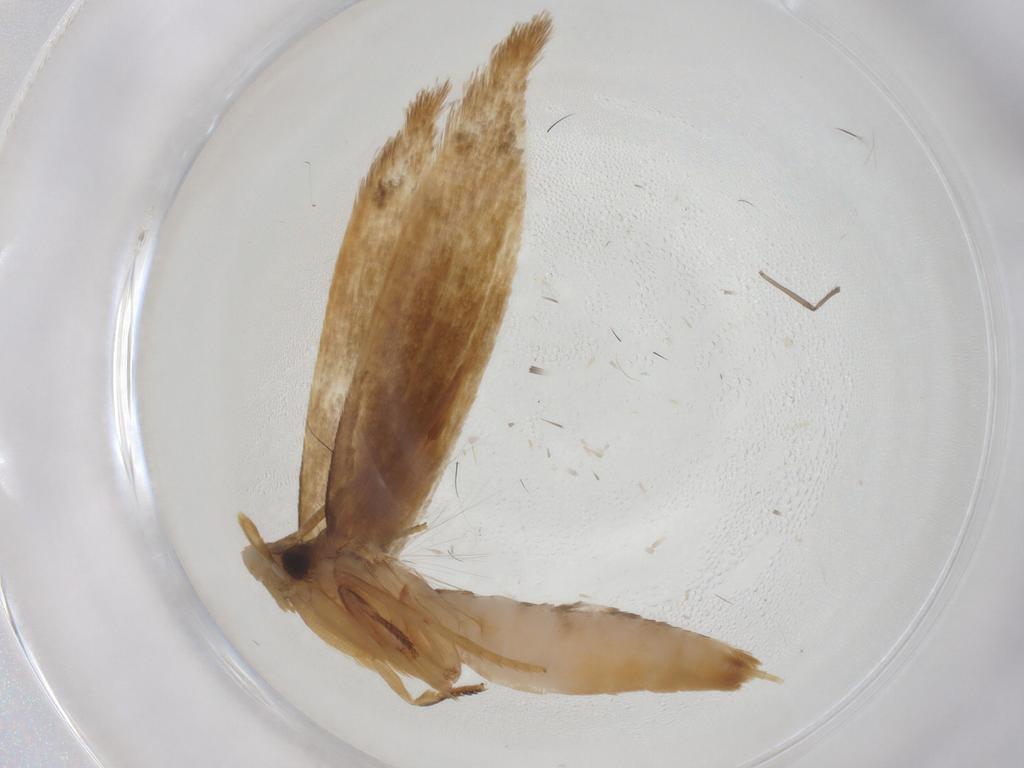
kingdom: Animalia
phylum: Arthropoda
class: Insecta
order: Lepidoptera
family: Tineidae
